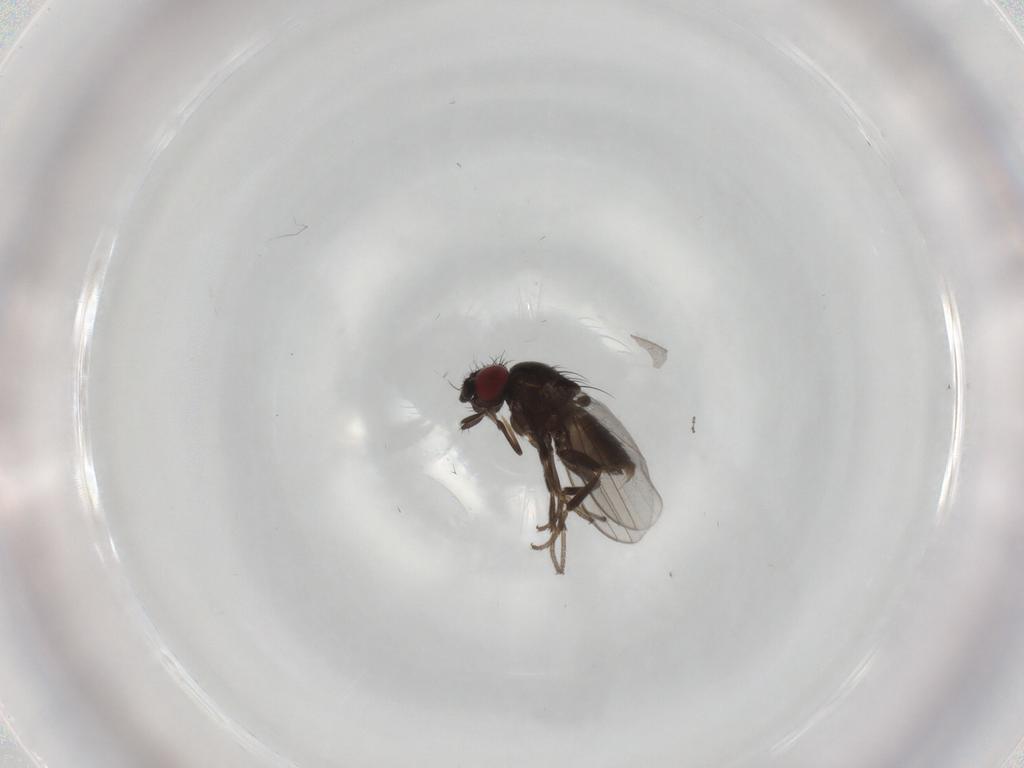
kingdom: Animalia
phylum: Arthropoda
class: Insecta
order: Diptera
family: Milichiidae
